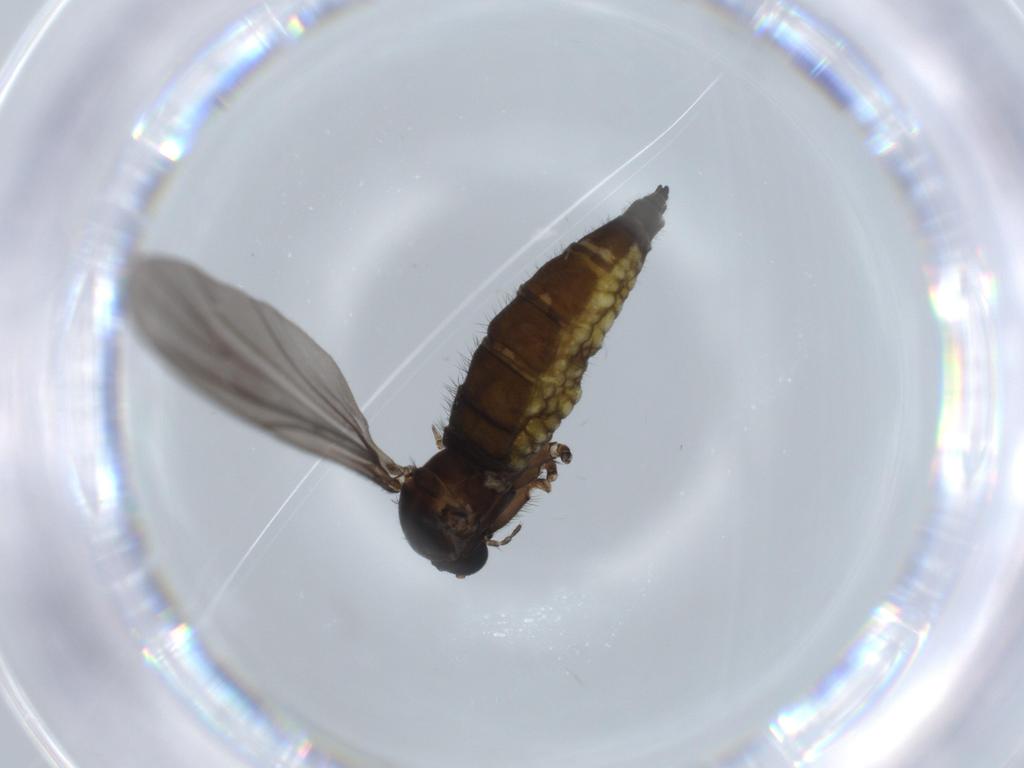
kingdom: Animalia
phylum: Arthropoda
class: Insecta
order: Diptera
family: Sciaridae
